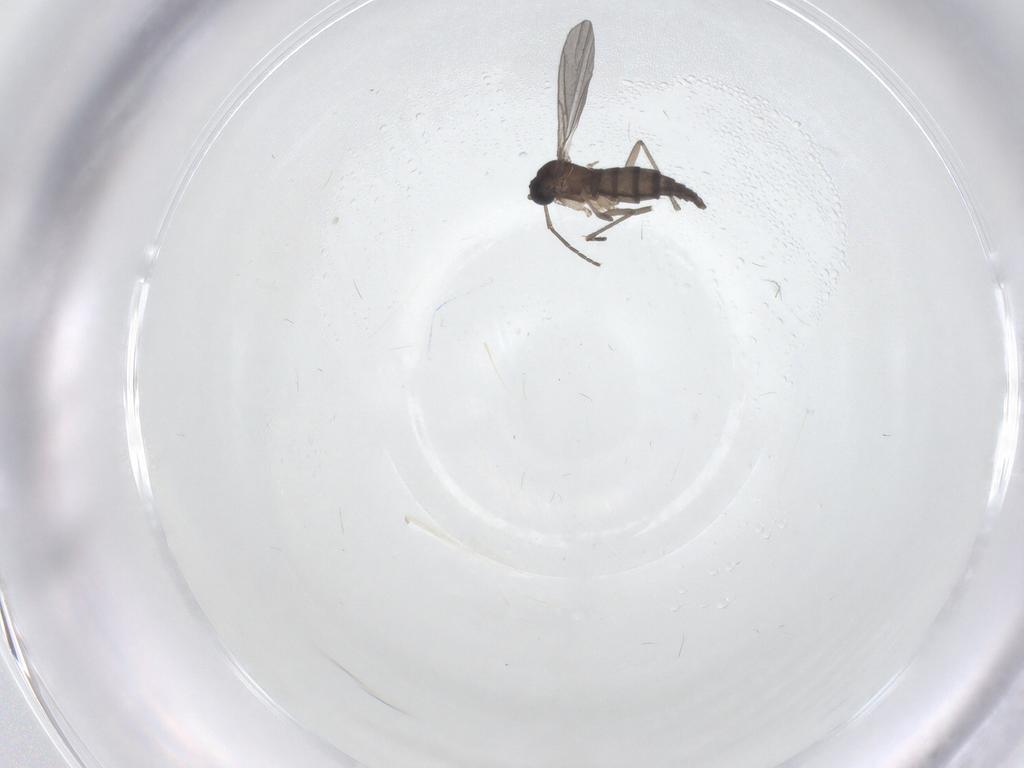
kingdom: Animalia
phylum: Arthropoda
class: Insecta
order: Diptera
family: Sciaridae
